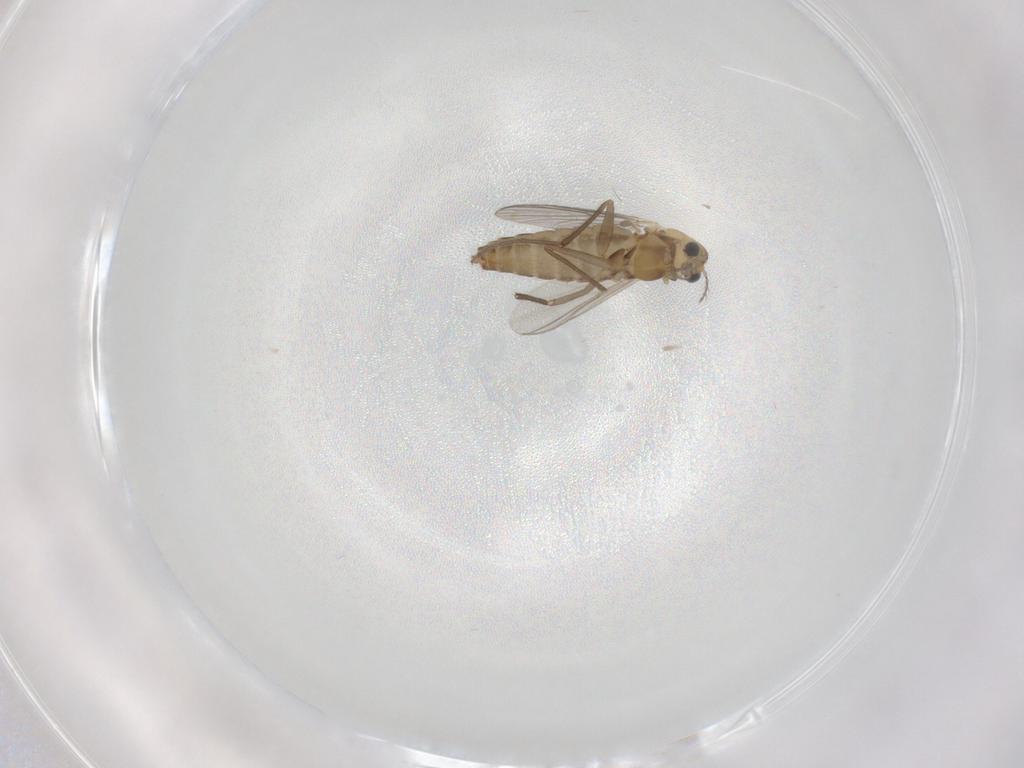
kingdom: Animalia
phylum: Arthropoda
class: Insecta
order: Diptera
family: Chironomidae
